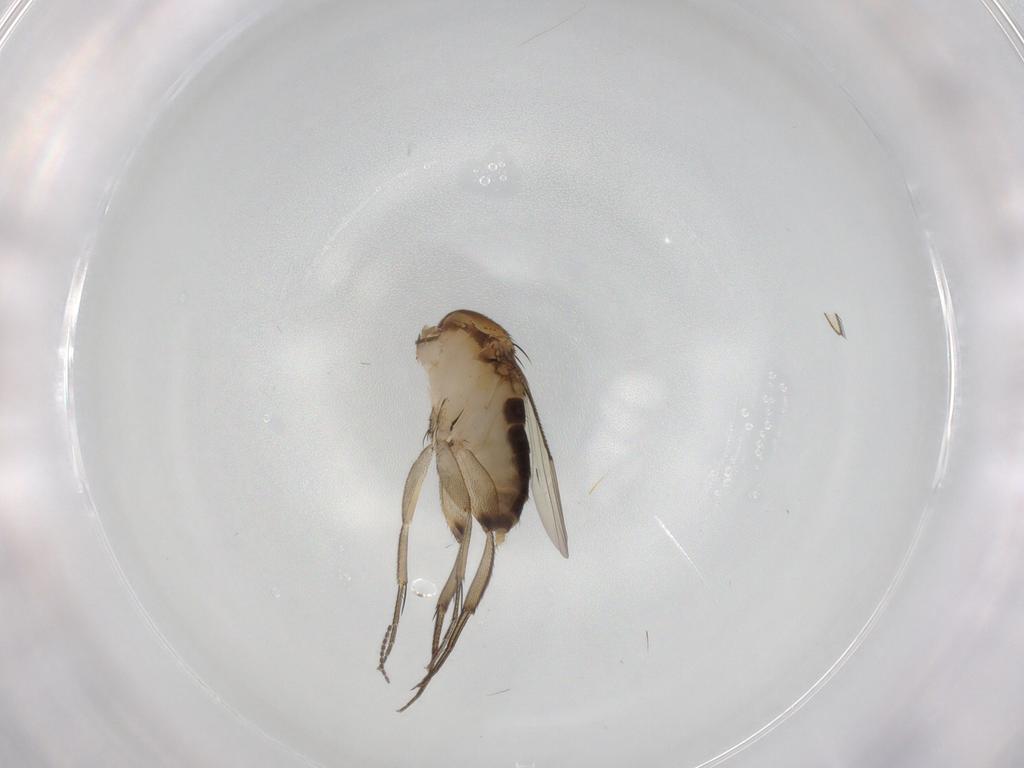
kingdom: Animalia
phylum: Arthropoda
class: Insecta
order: Diptera
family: Phoridae
